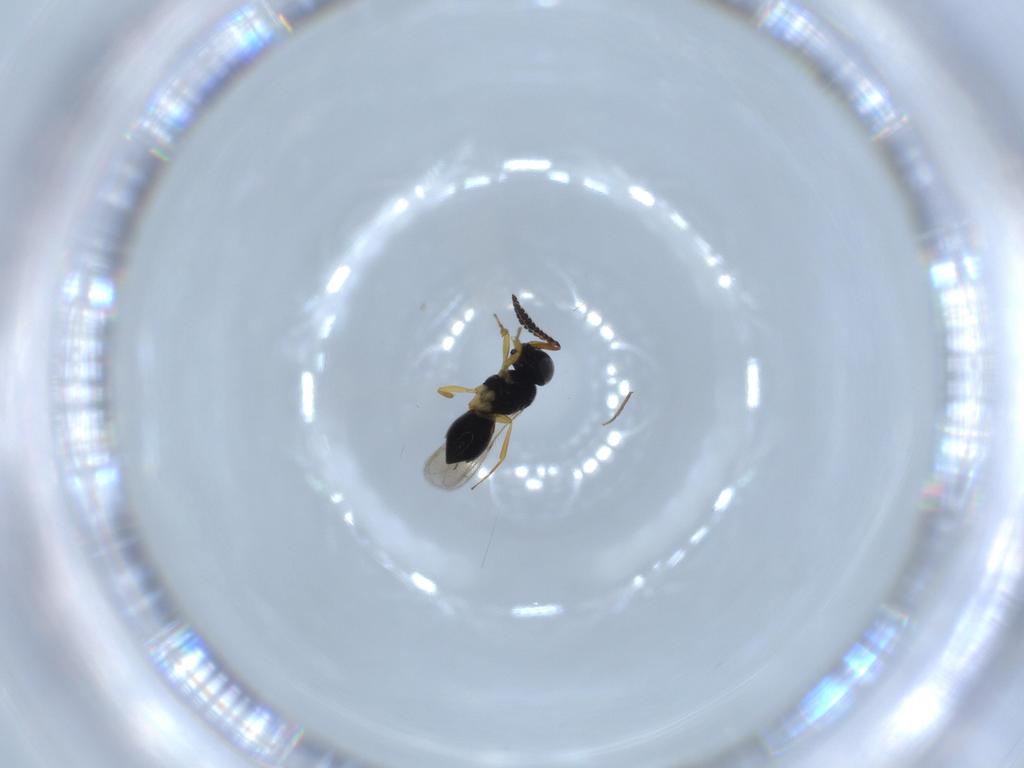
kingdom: Animalia
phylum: Arthropoda
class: Insecta
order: Hymenoptera
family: Scelionidae
